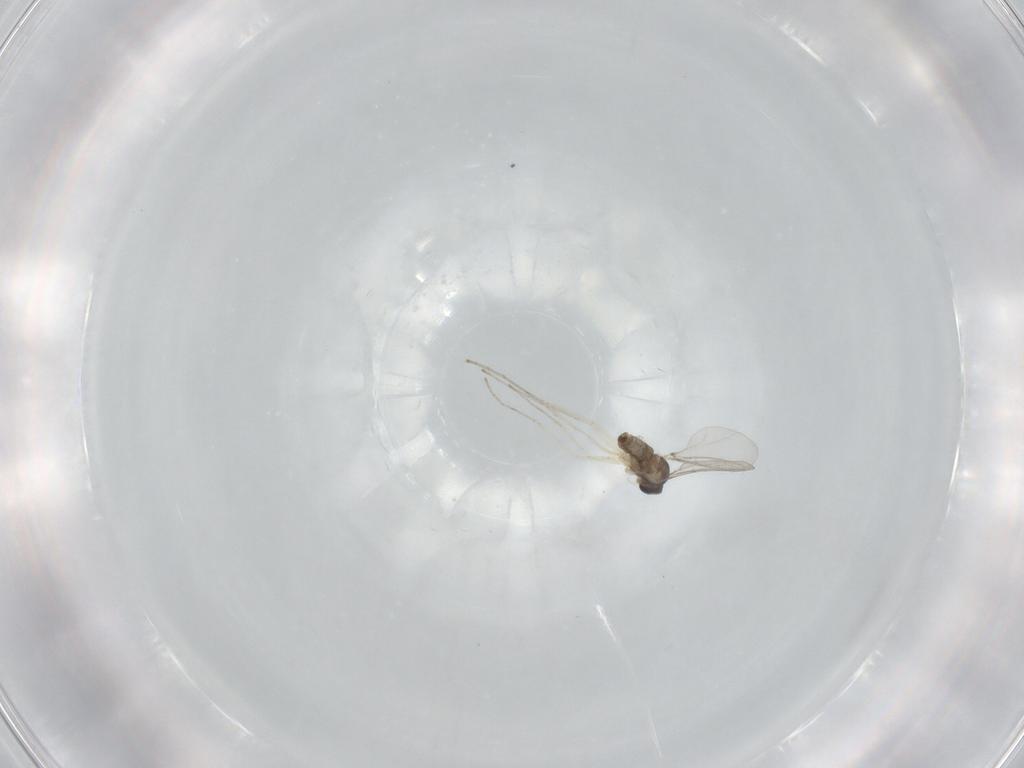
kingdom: Animalia
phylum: Arthropoda
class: Insecta
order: Diptera
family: Cecidomyiidae
